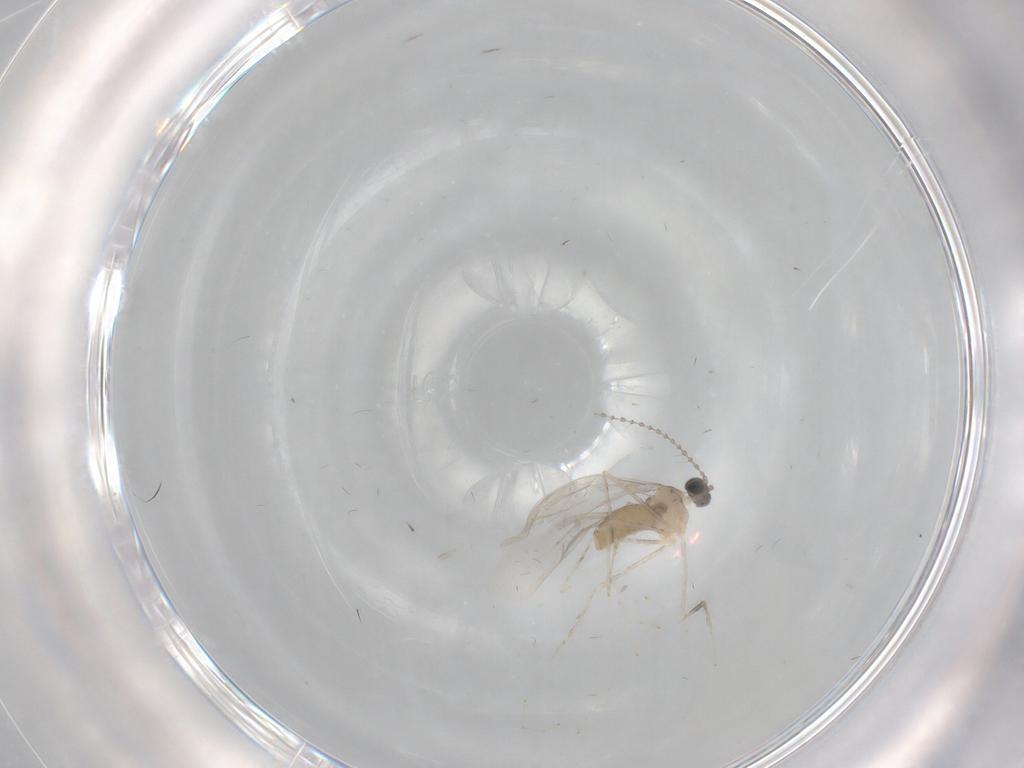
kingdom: Animalia
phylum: Arthropoda
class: Insecta
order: Diptera
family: Cecidomyiidae
